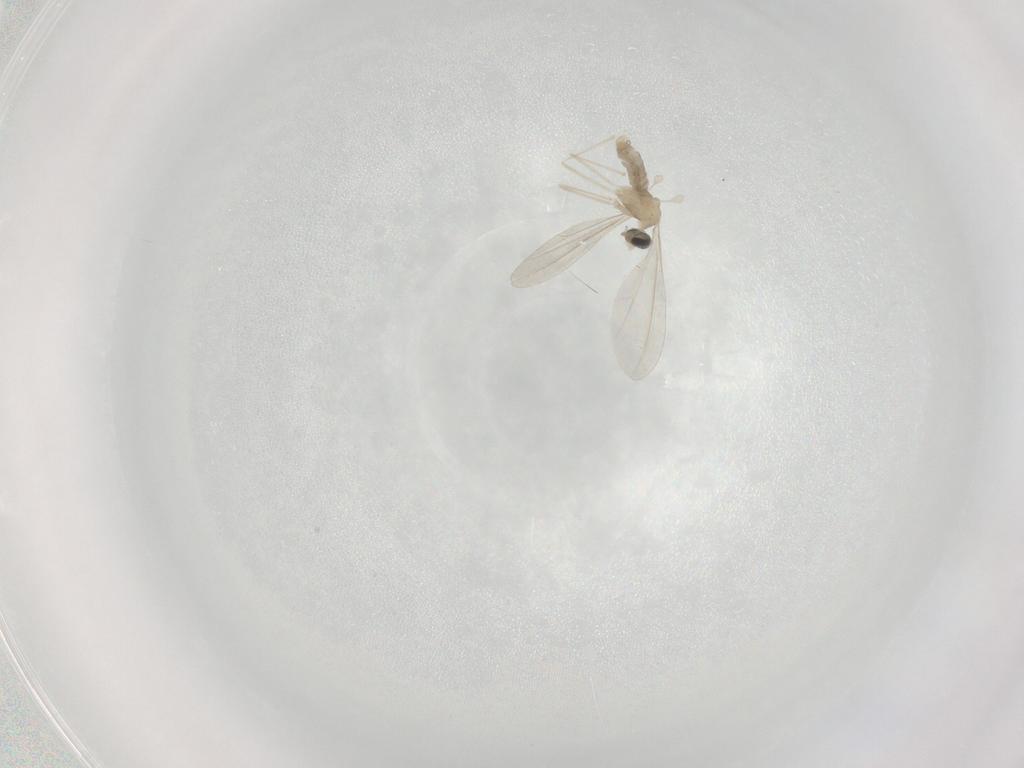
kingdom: Animalia
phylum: Arthropoda
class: Insecta
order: Diptera
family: Cecidomyiidae
